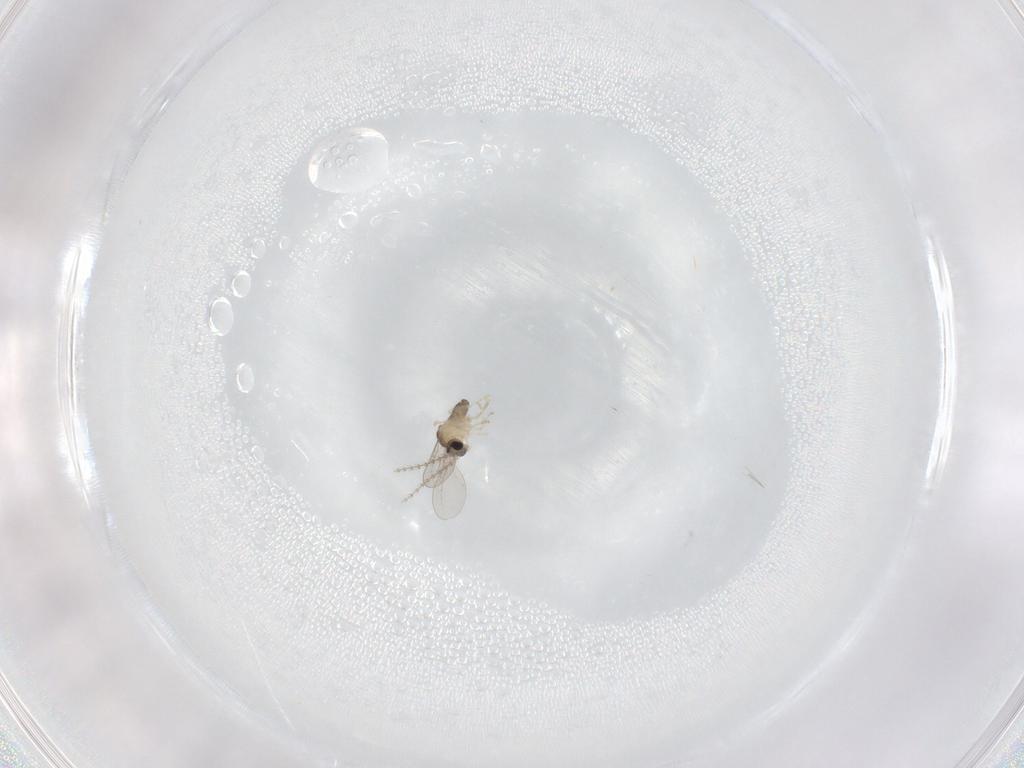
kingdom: Animalia
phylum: Arthropoda
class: Insecta
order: Diptera
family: Cecidomyiidae
